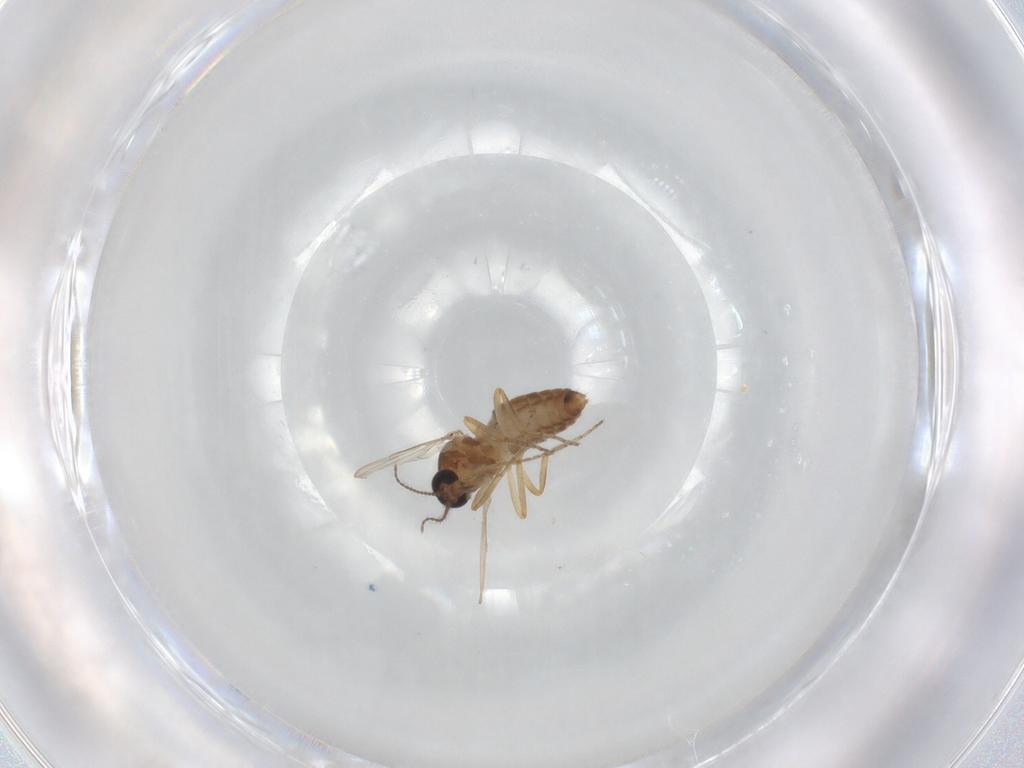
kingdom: Animalia
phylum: Arthropoda
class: Insecta
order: Diptera
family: Ceratopogonidae
